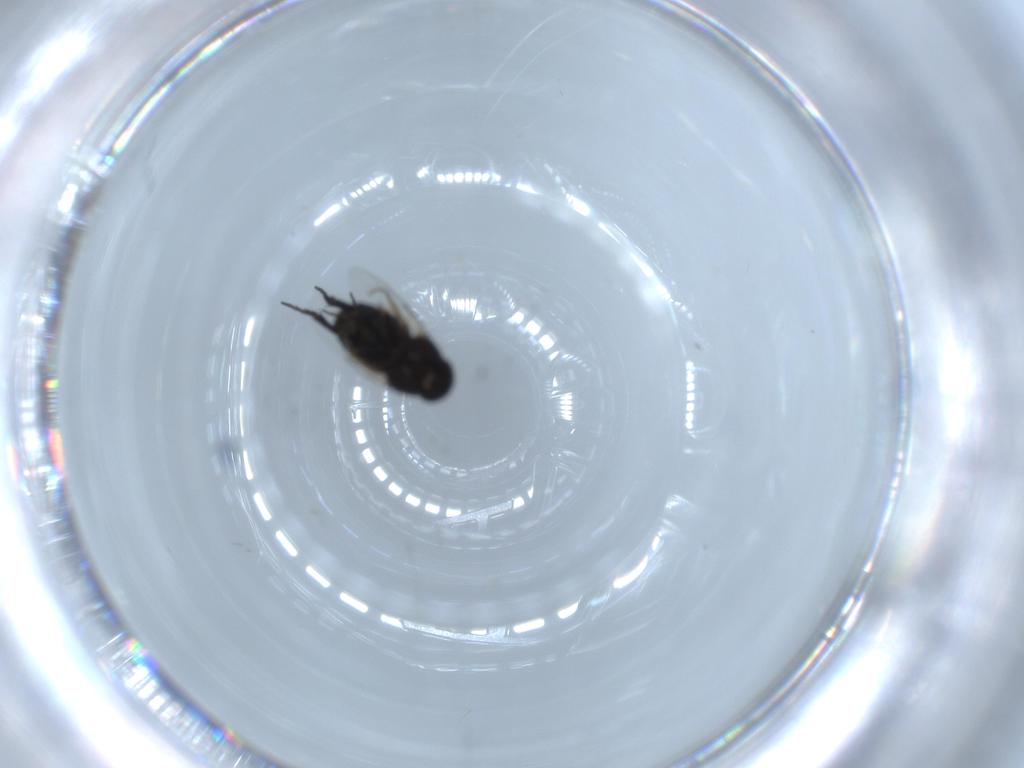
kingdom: Animalia
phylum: Arthropoda
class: Insecta
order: Diptera
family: Phoridae
